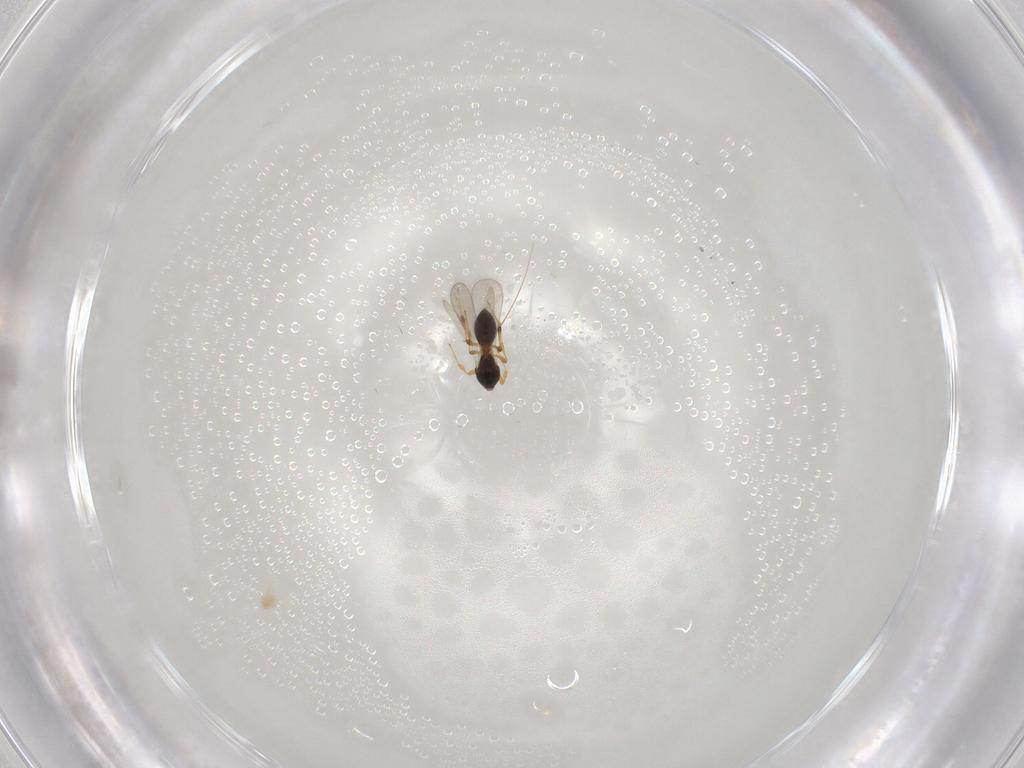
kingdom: Animalia
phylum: Arthropoda
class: Insecta
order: Hymenoptera
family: Platygastridae
